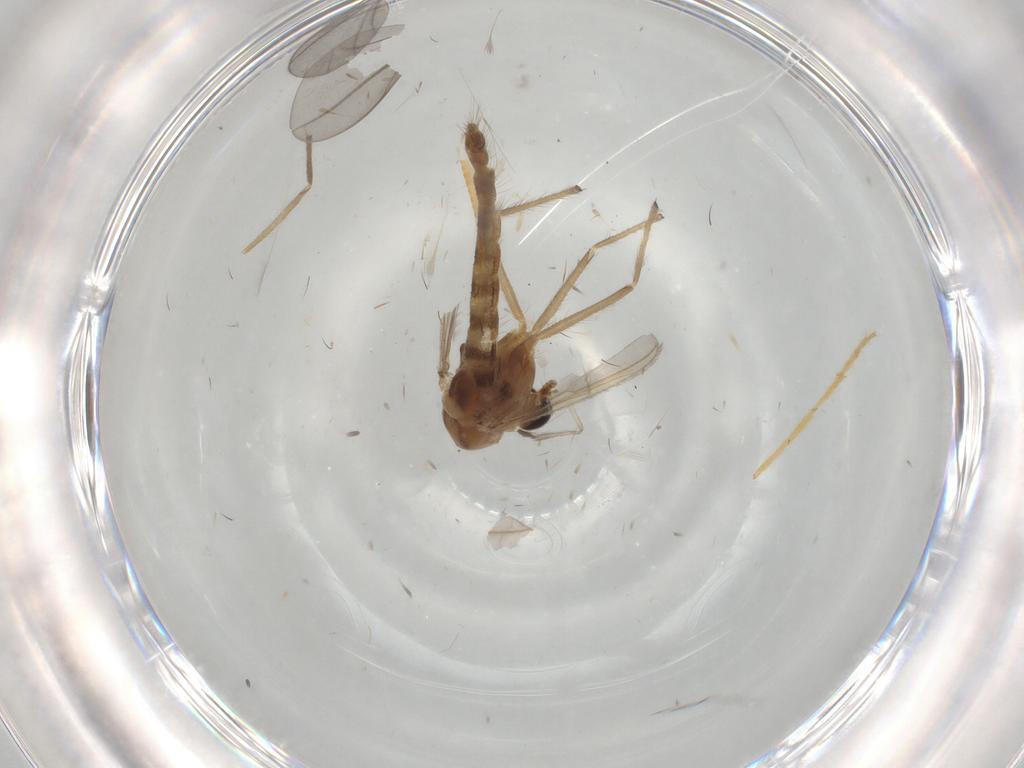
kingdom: Animalia
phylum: Arthropoda
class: Insecta
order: Diptera
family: Chironomidae
